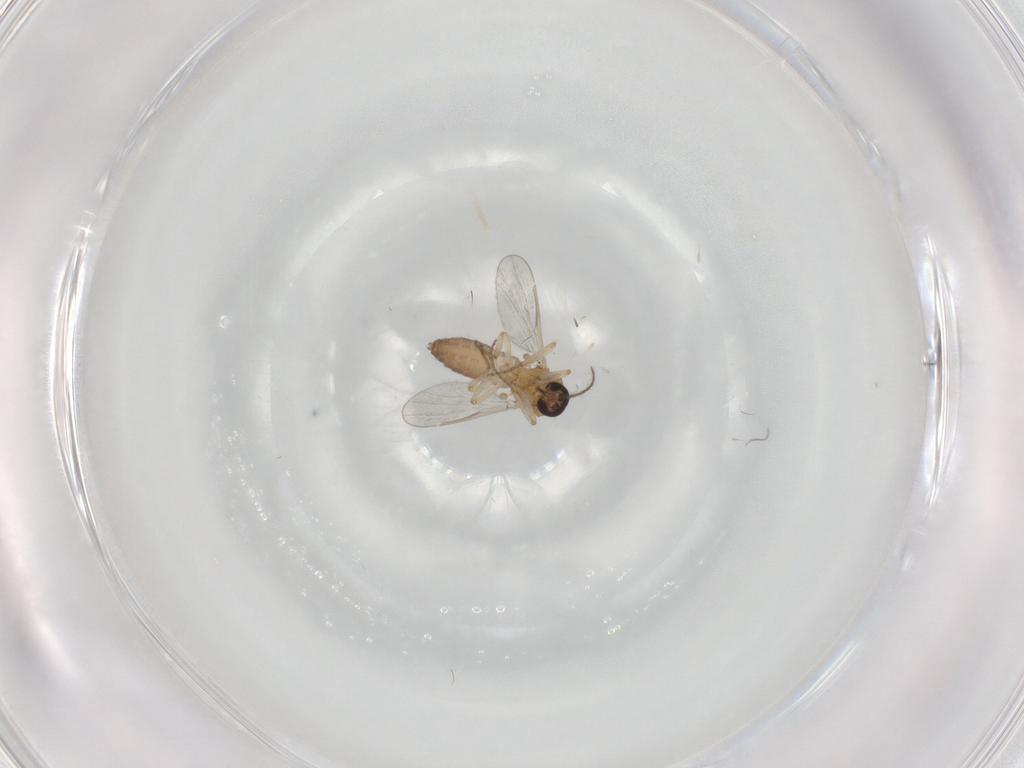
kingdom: Animalia
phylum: Arthropoda
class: Insecta
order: Diptera
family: Ceratopogonidae
